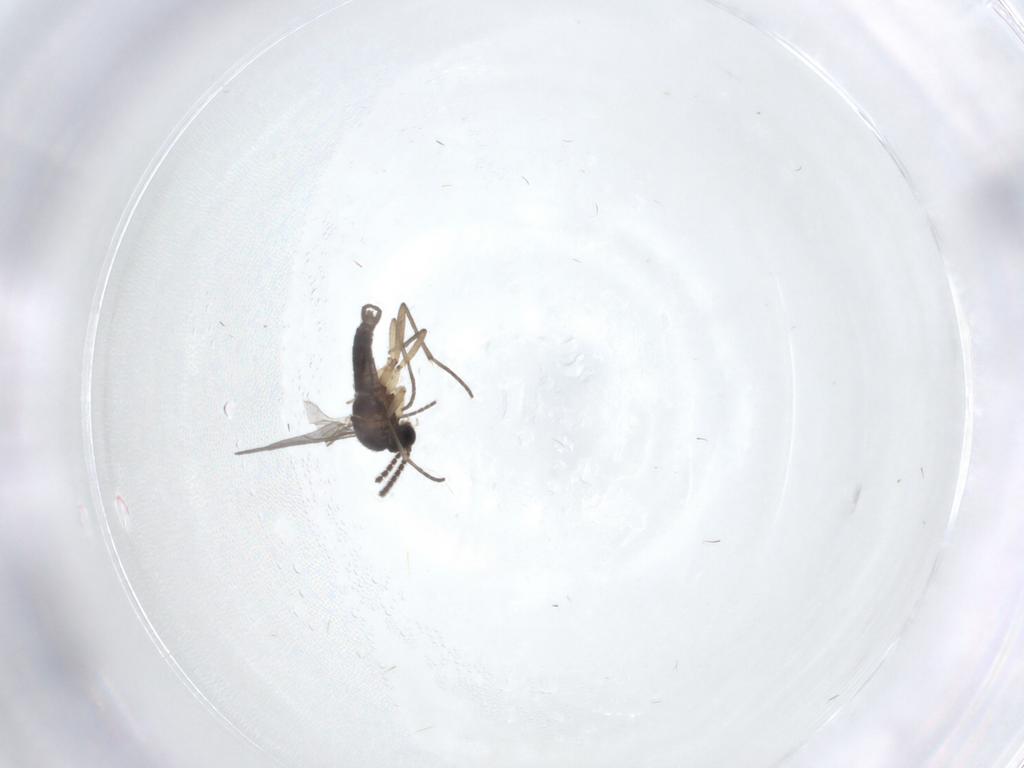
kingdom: Animalia
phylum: Arthropoda
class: Insecta
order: Diptera
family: Sciaridae
